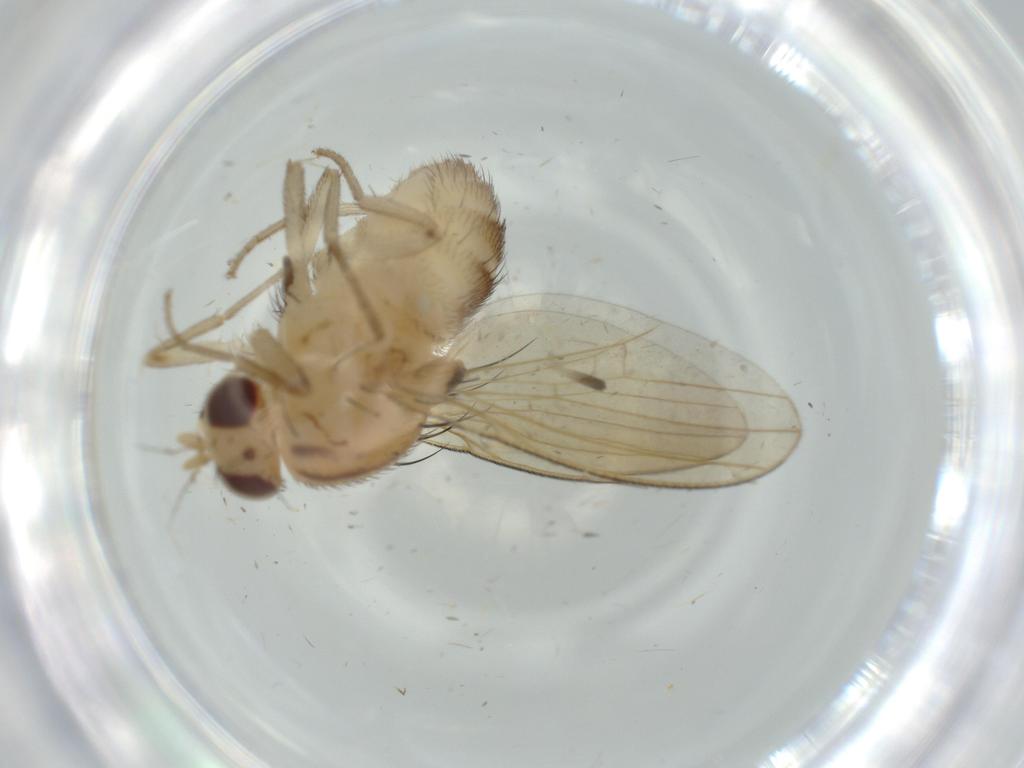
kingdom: Animalia
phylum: Arthropoda
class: Insecta
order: Diptera
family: Lauxaniidae
